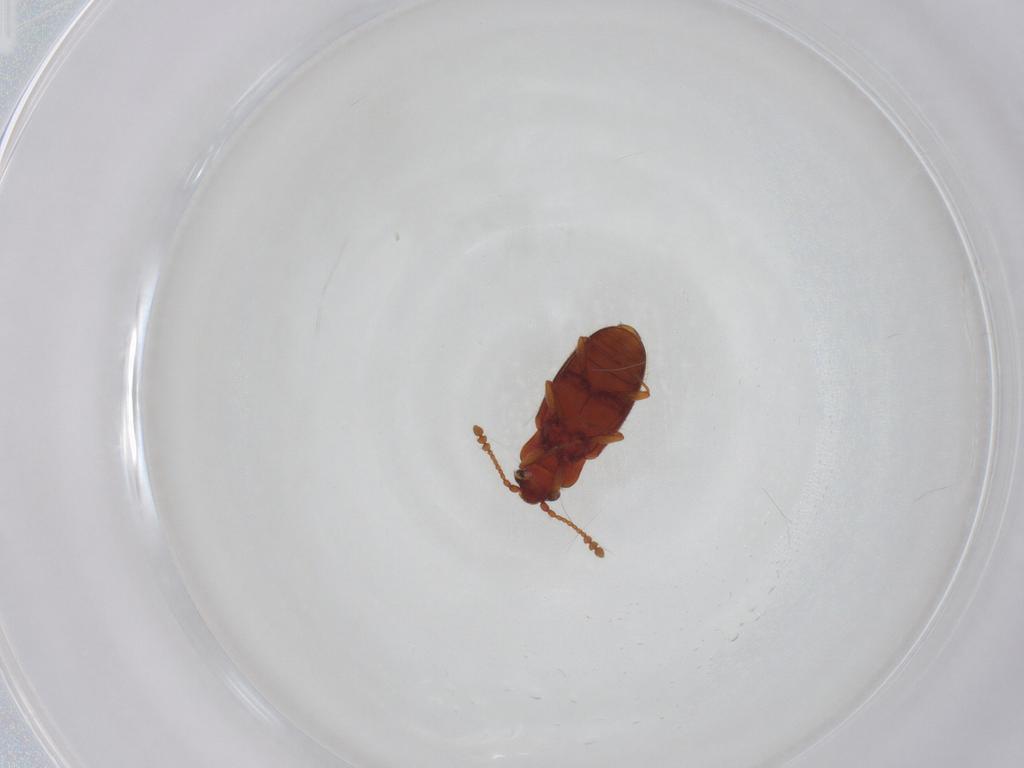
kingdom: Animalia
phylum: Arthropoda
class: Insecta
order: Coleoptera
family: Cryptophagidae
